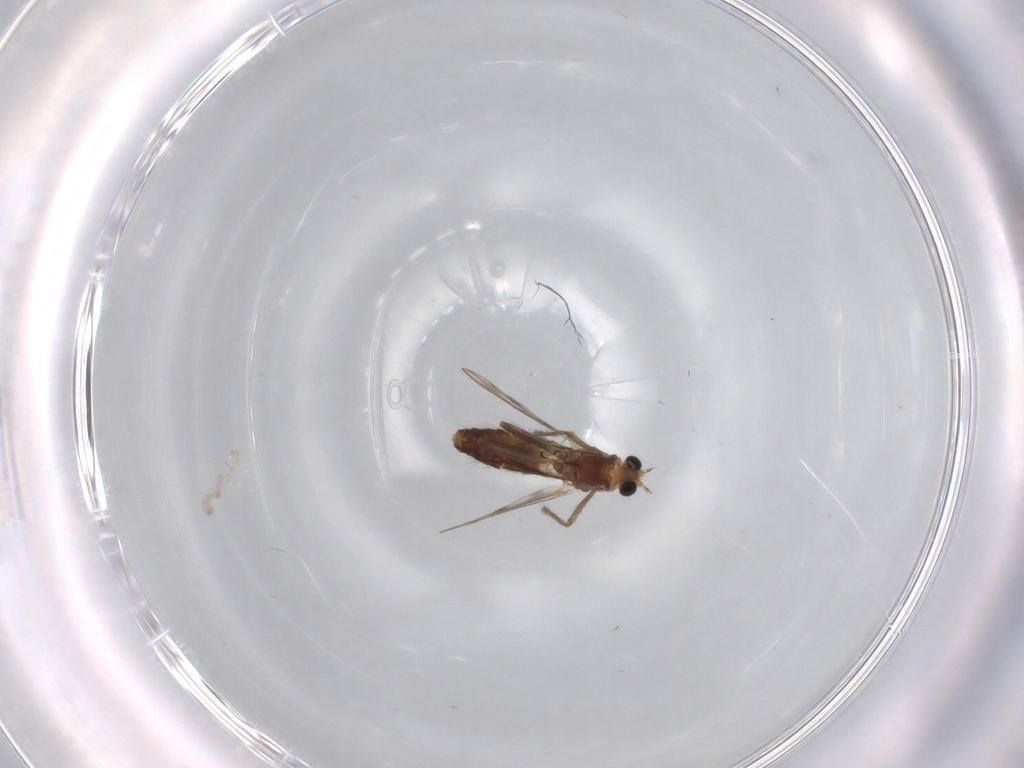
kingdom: Animalia
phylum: Arthropoda
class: Insecta
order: Diptera
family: Chironomidae
